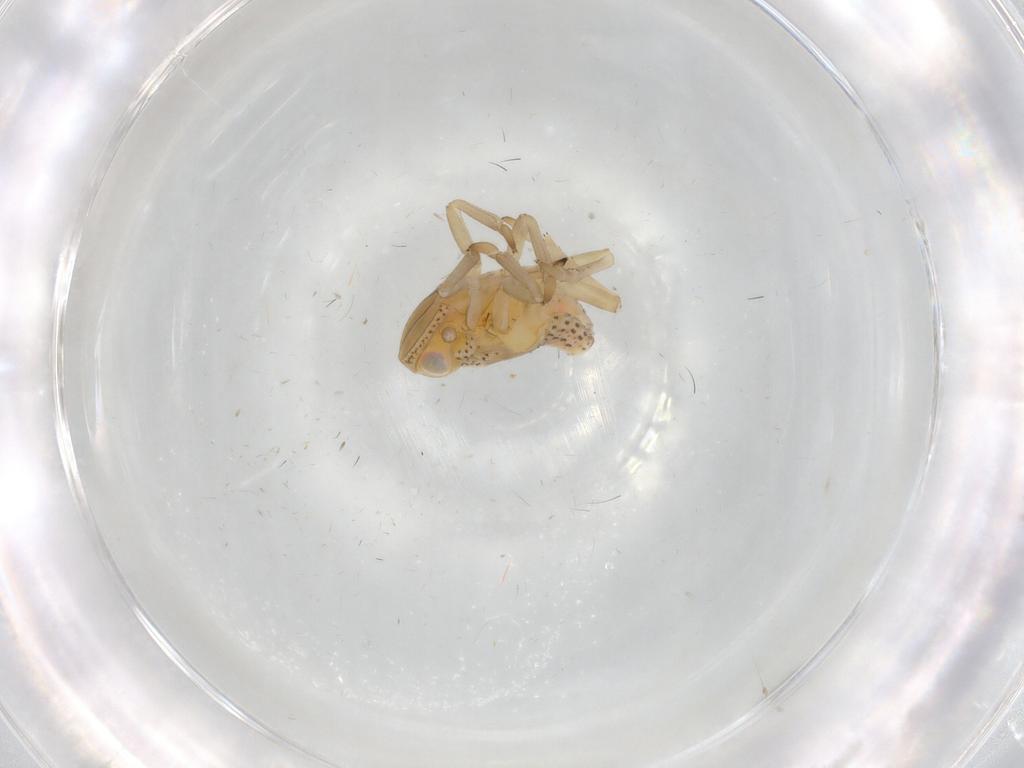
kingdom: Animalia
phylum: Arthropoda
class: Insecta
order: Hemiptera
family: Tropiduchidae
